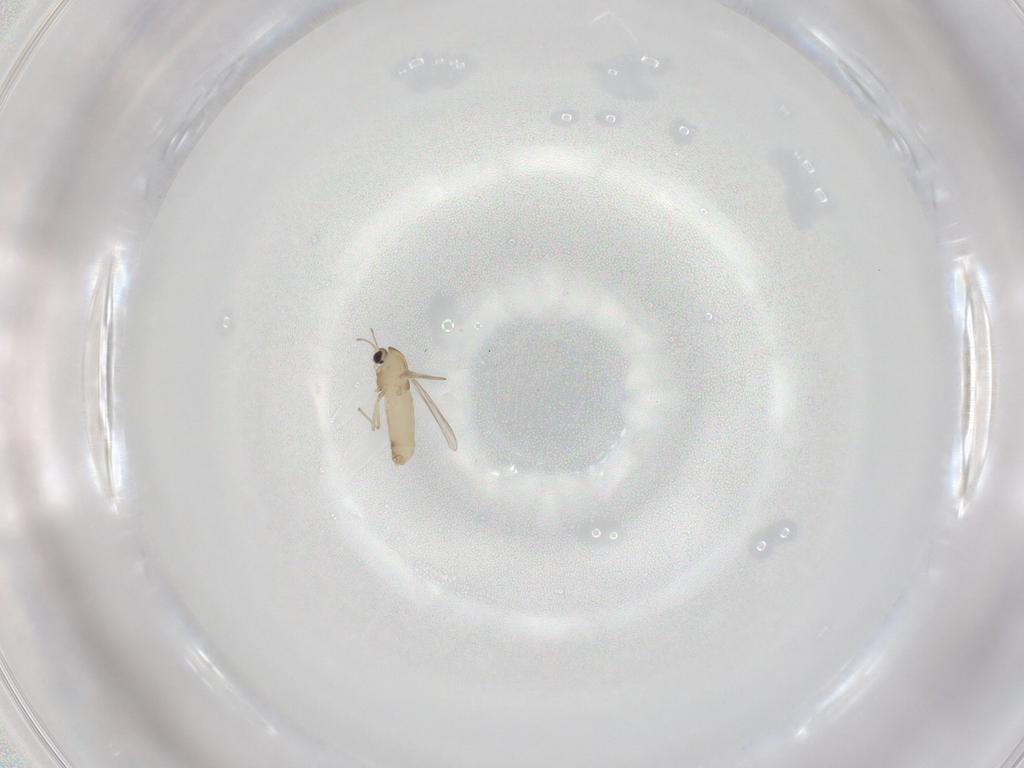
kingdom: Animalia
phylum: Arthropoda
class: Insecta
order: Diptera
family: Chironomidae
